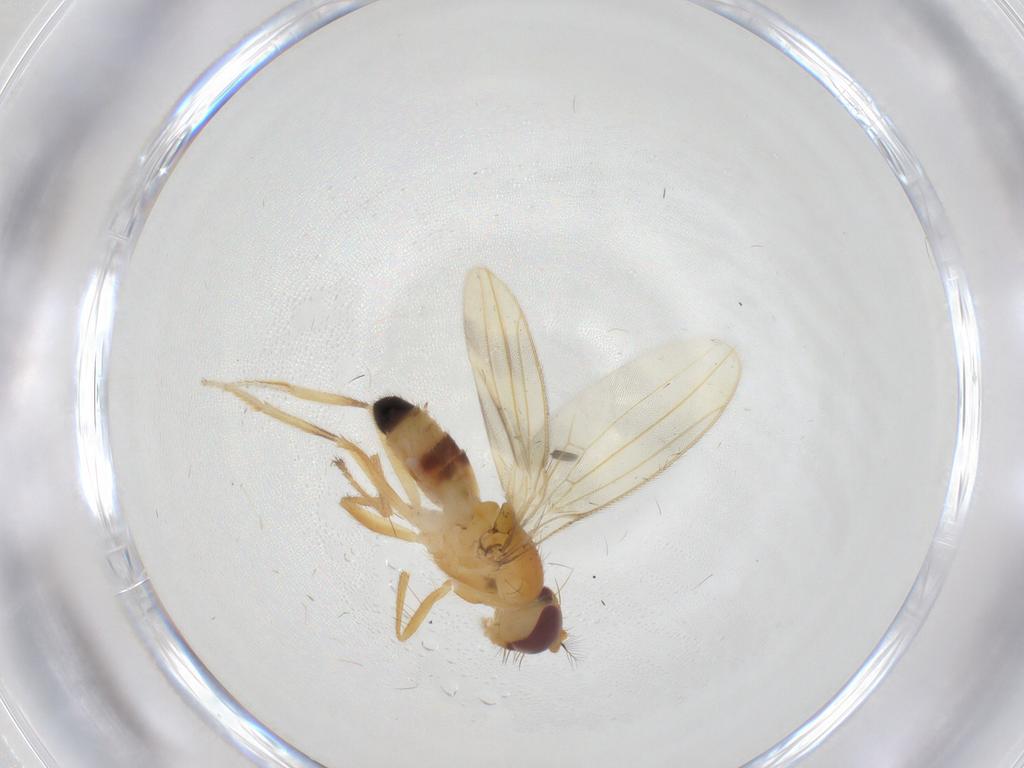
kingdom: Animalia
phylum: Arthropoda
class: Insecta
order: Diptera
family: Periscelididae
